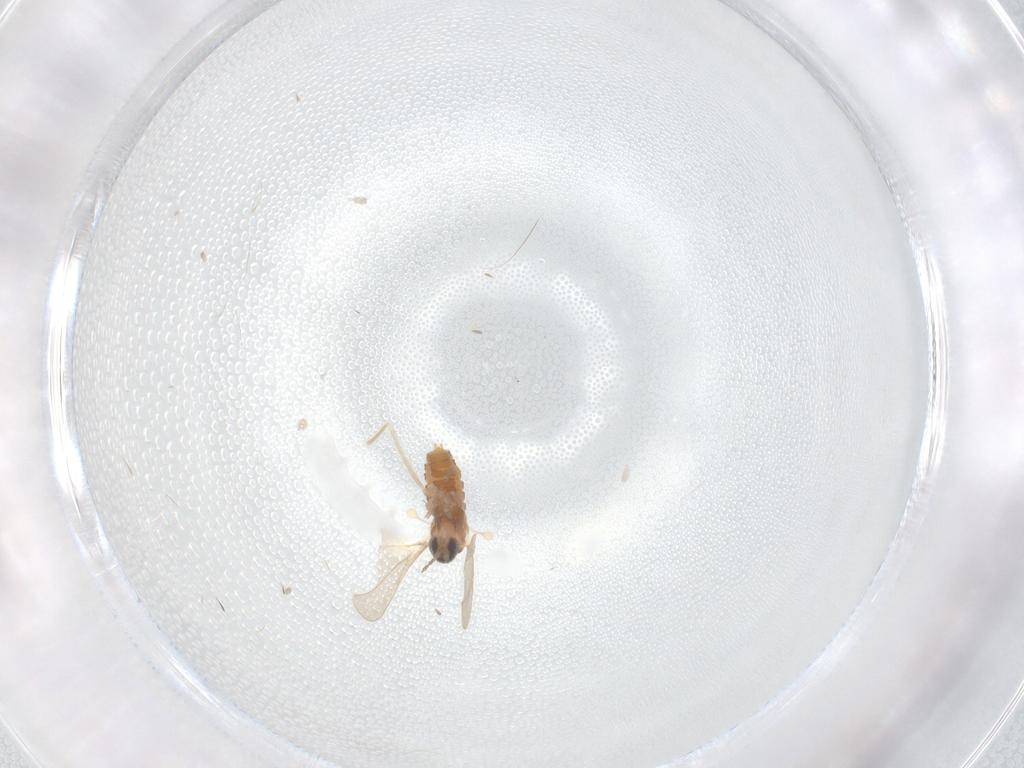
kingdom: Animalia
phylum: Arthropoda
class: Insecta
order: Diptera
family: Cecidomyiidae
